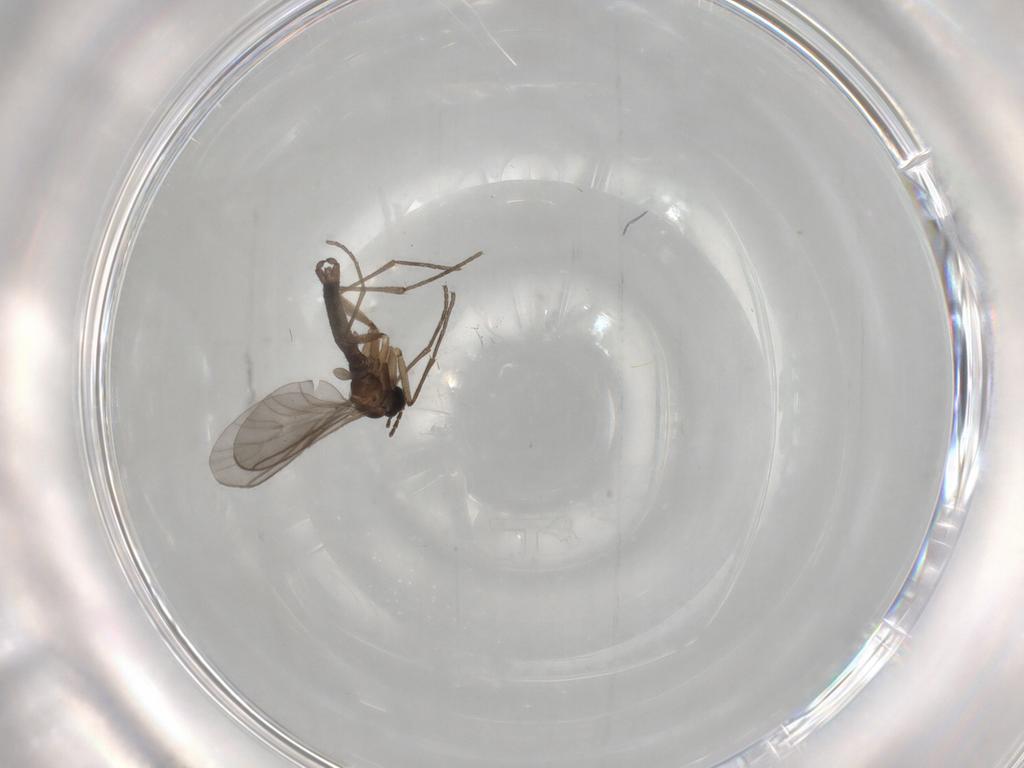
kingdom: Animalia
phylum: Arthropoda
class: Insecta
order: Diptera
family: Sciaridae
